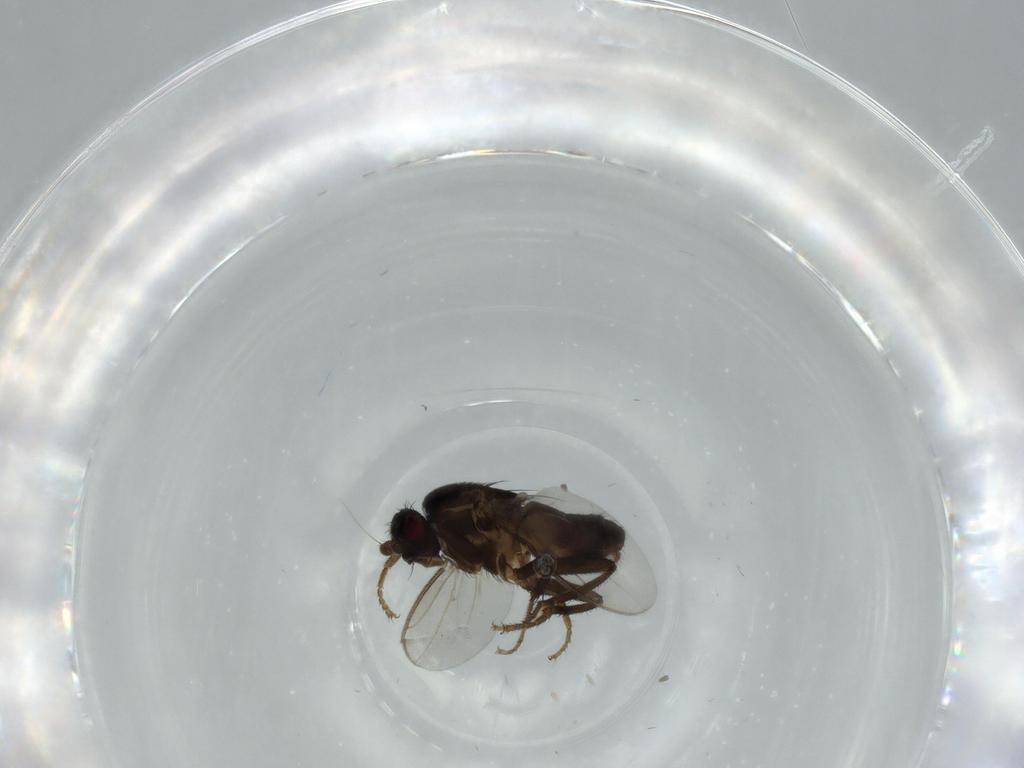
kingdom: Animalia
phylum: Arthropoda
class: Insecta
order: Diptera
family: Sphaeroceridae
